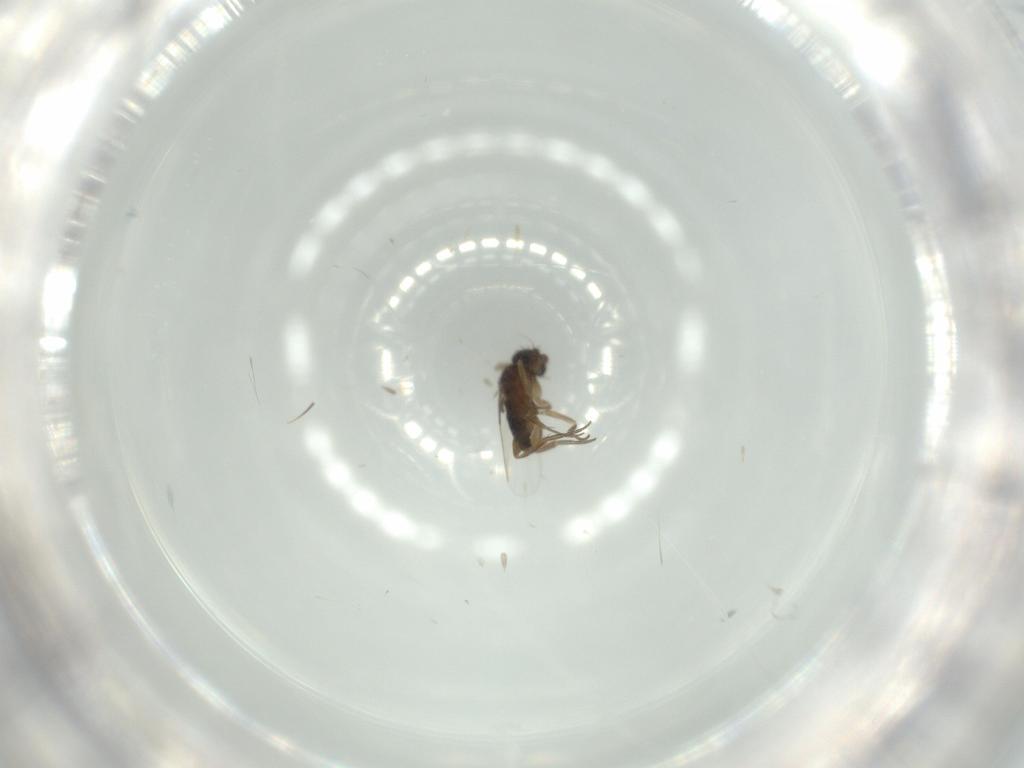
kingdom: Animalia
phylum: Arthropoda
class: Insecta
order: Diptera
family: Phoridae
